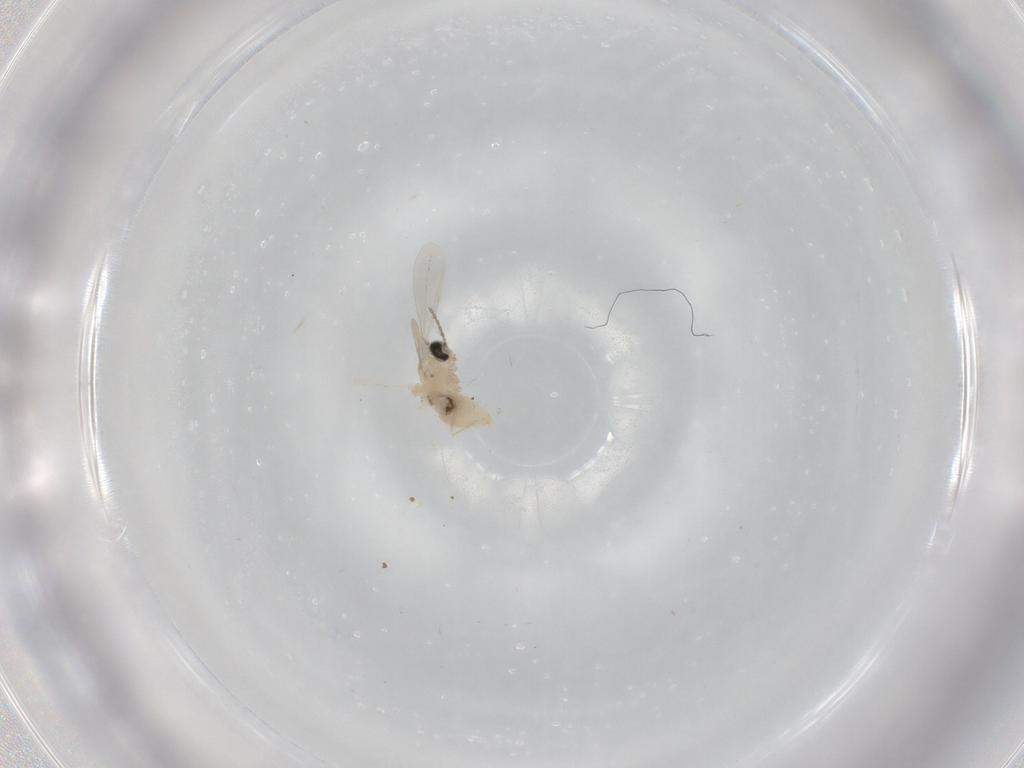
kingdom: Animalia
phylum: Arthropoda
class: Insecta
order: Diptera
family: Cecidomyiidae
